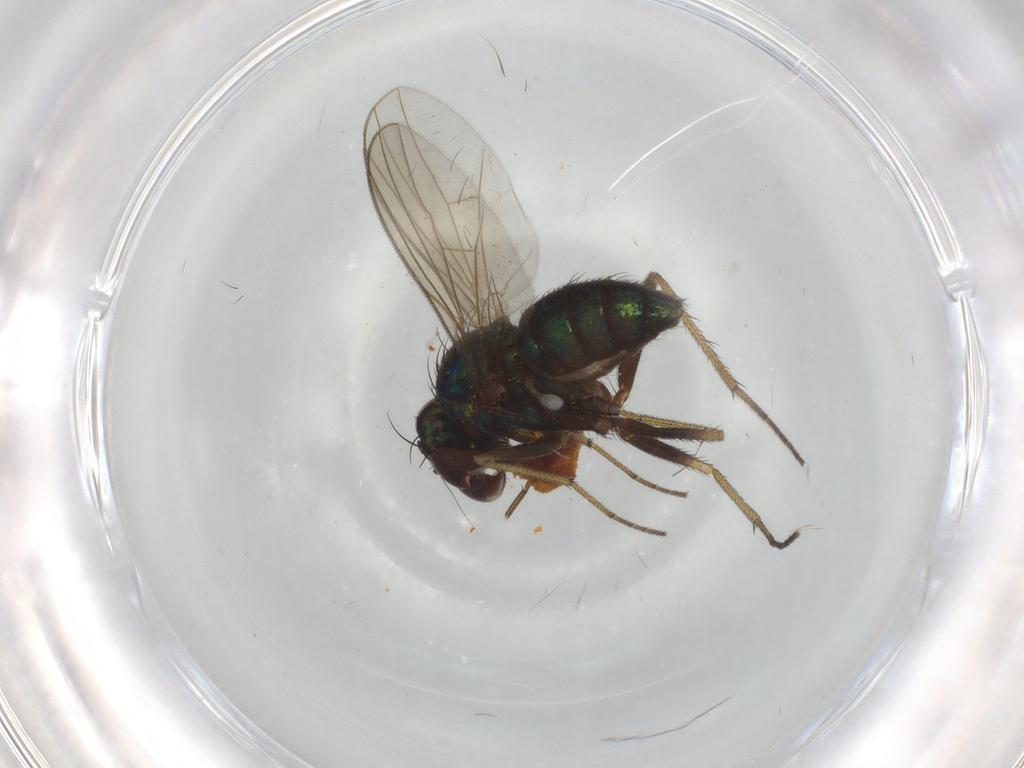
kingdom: Animalia
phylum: Arthropoda
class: Insecta
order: Diptera
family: Dolichopodidae
